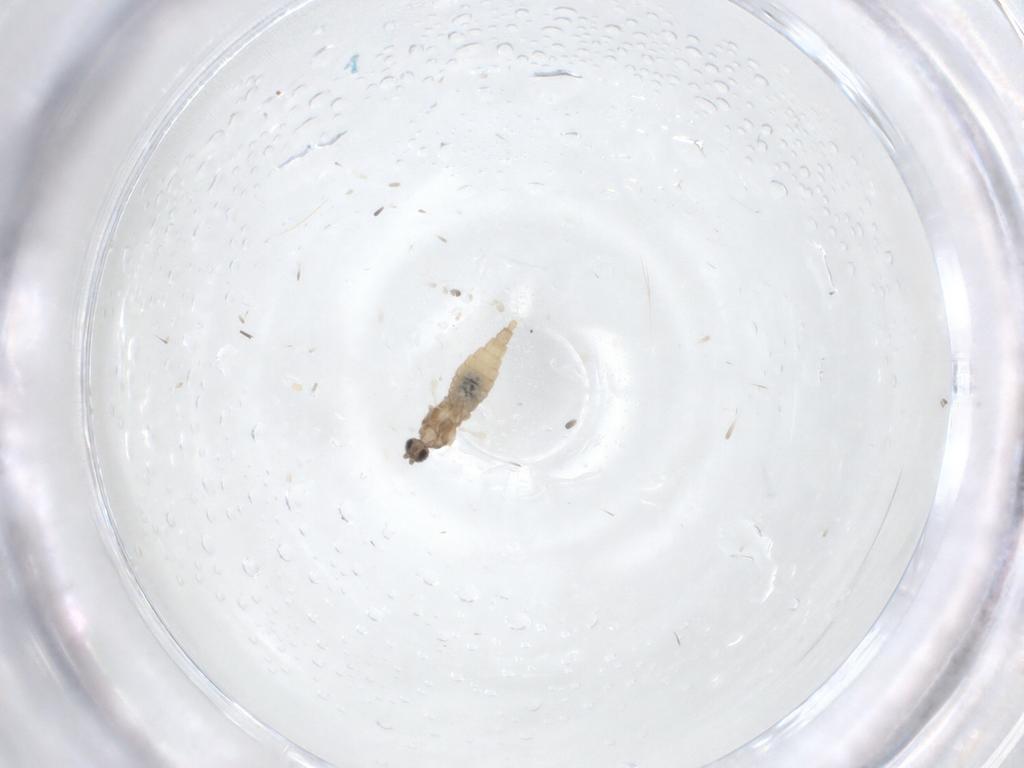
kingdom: Animalia
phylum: Arthropoda
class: Insecta
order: Diptera
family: Cecidomyiidae
